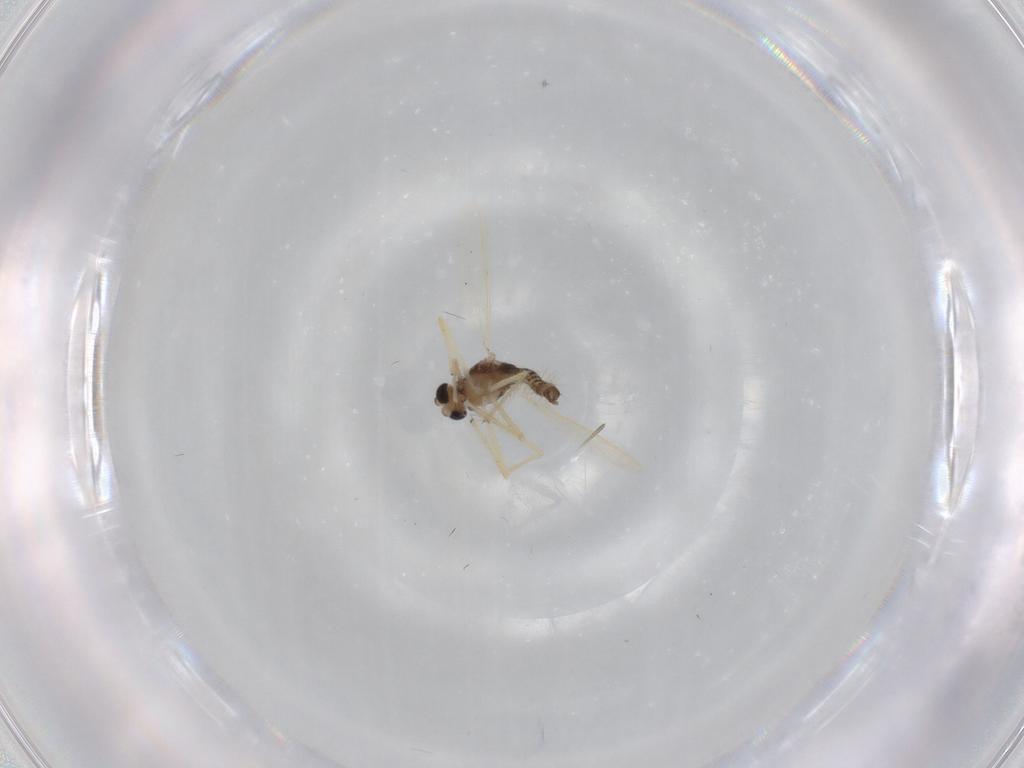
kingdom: Animalia
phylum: Arthropoda
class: Insecta
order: Diptera
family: Chironomidae
